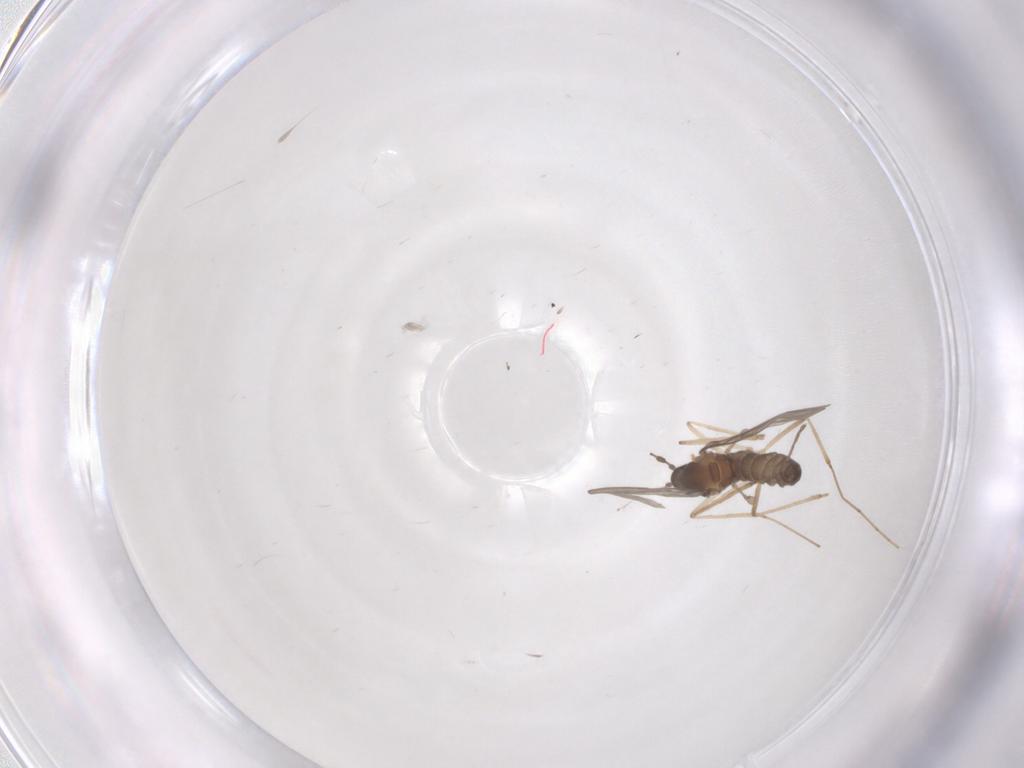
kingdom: Animalia
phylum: Arthropoda
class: Insecta
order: Diptera
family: Cecidomyiidae
